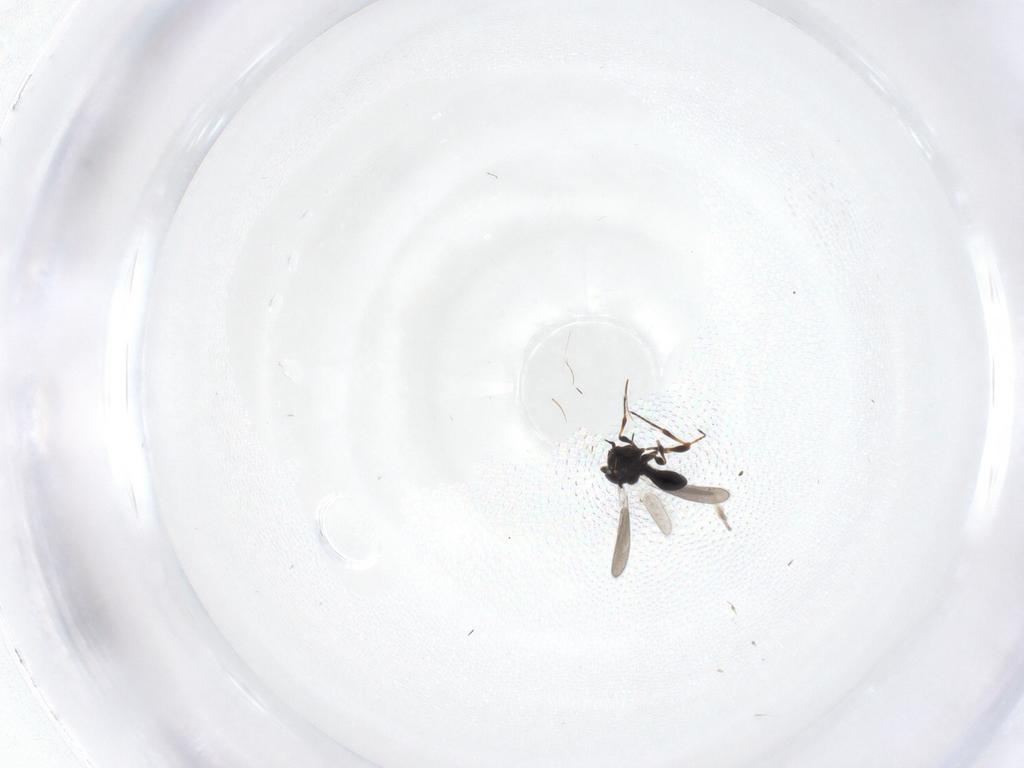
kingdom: Animalia
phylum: Arthropoda
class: Insecta
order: Hymenoptera
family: Platygastridae
